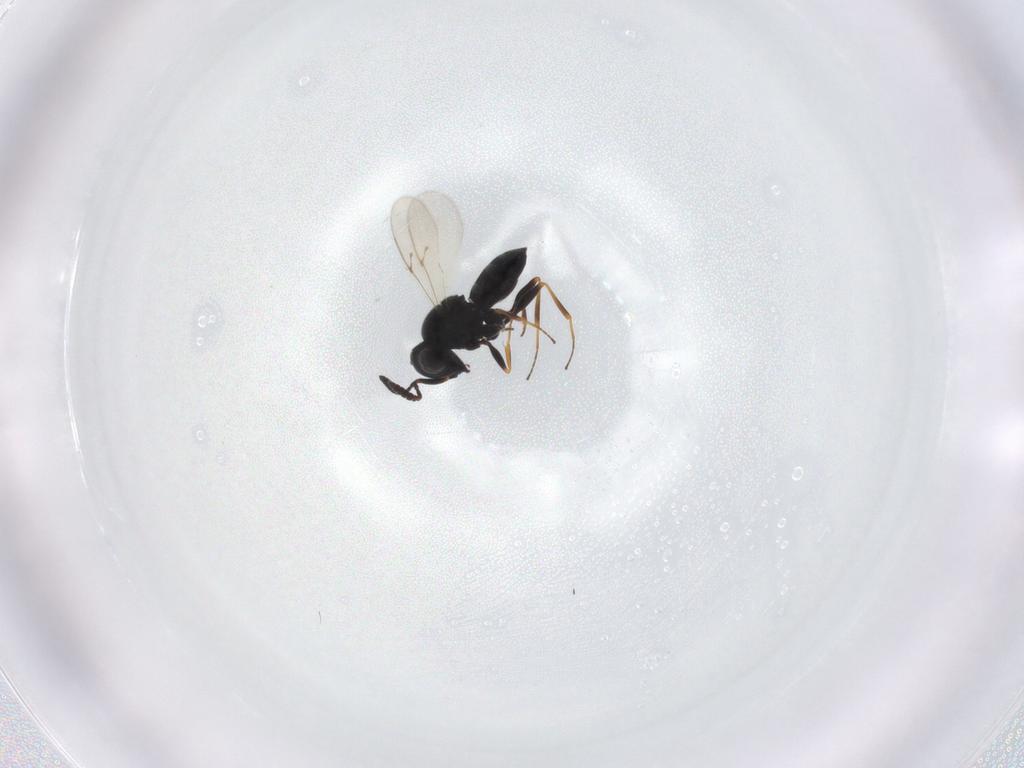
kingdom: Animalia
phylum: Arthropoda
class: Insecta
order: Hymenoptera
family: Scelionidae
